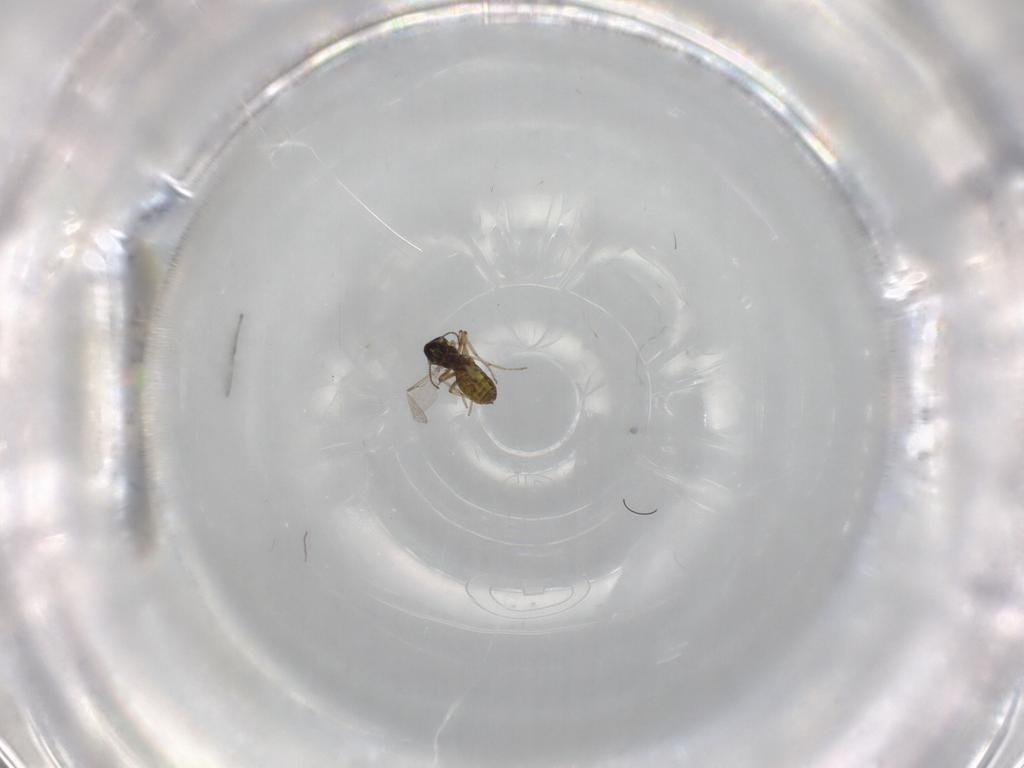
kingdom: Animalia
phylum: Arthropoda
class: Insecta
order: Diptera
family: Ceratopogonidae
